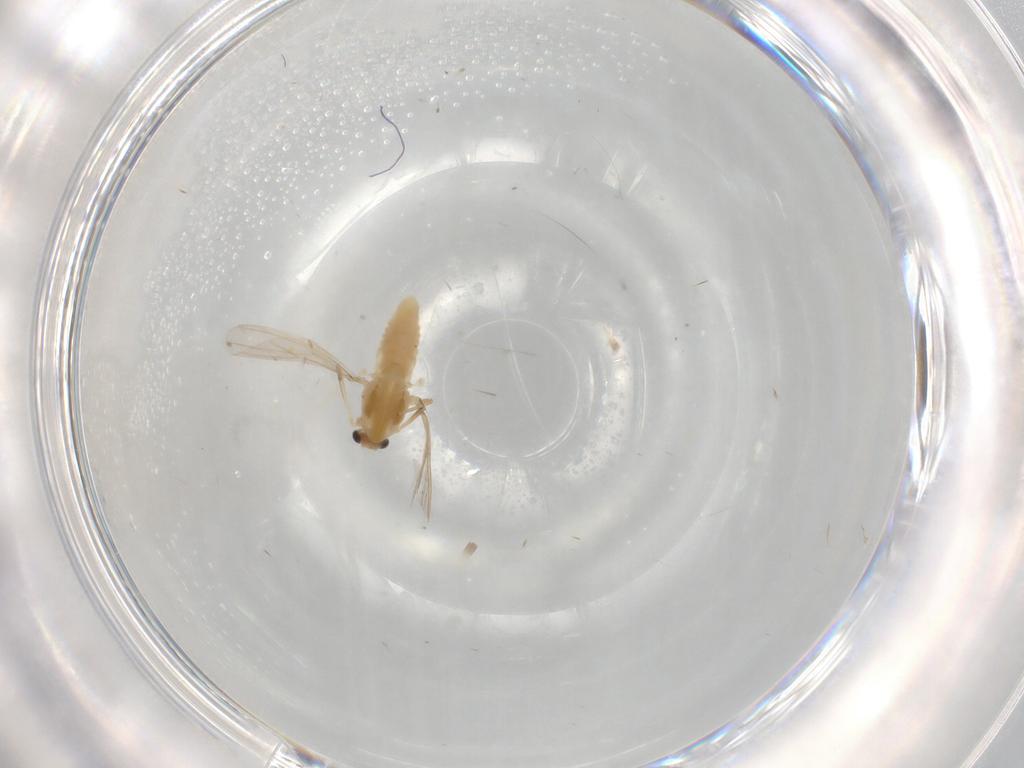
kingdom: Animalia
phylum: Arthropoda
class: Insecta
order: Diptera
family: Chironomidae
